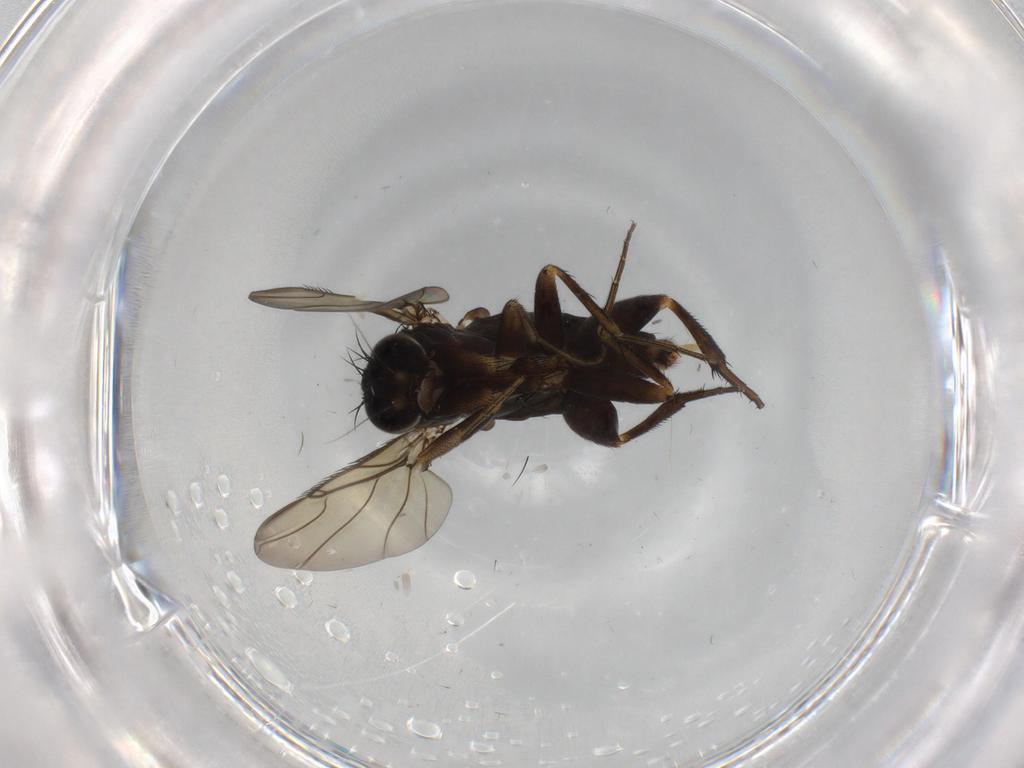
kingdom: Animalia
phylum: Arthropoda
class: Insecta
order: Diptera
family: Phoridae
